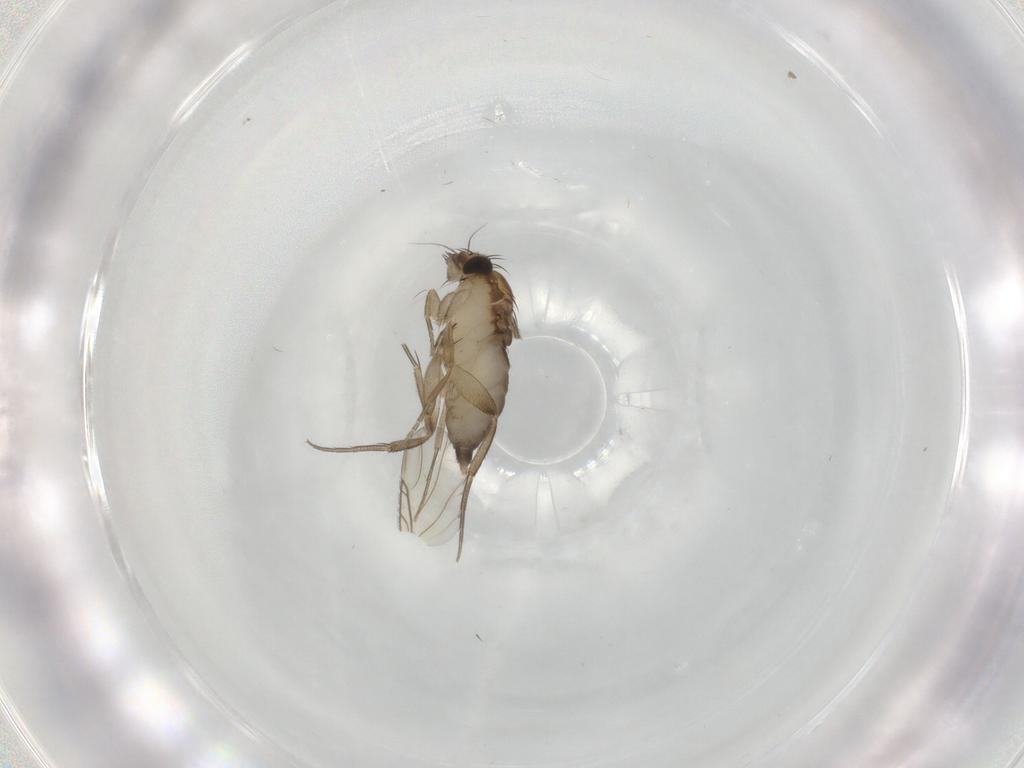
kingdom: Animalia
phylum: Arthropoda
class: Insecta
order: Diptera
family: Phoridae
